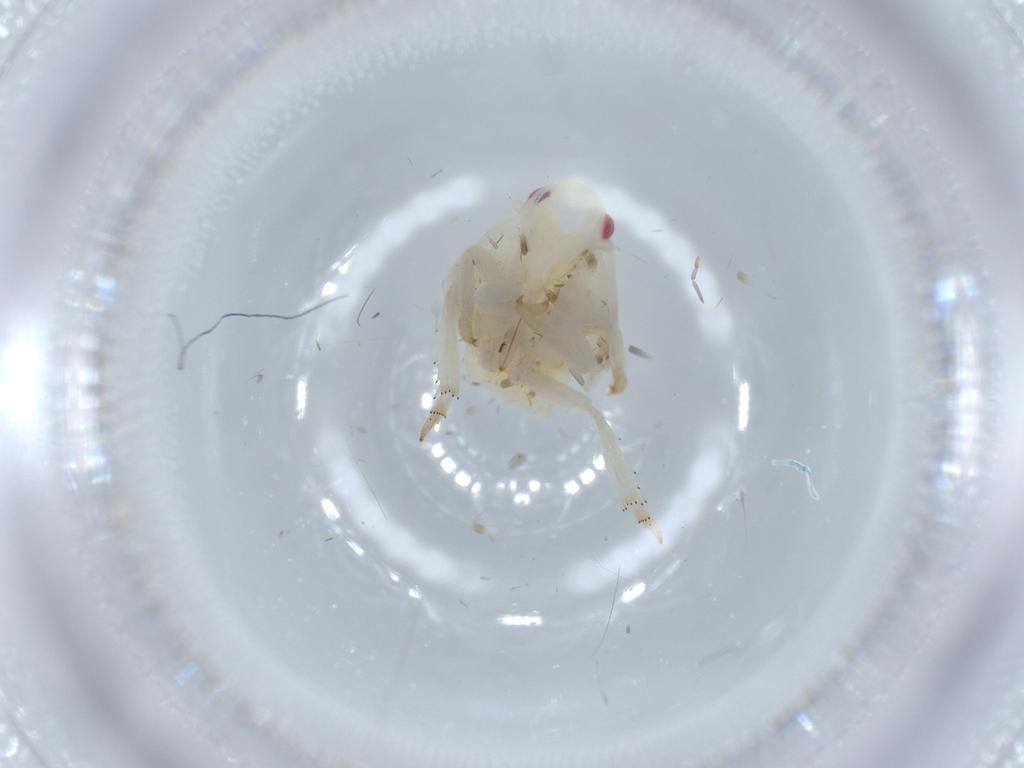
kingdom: Animalia
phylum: Arthropoda
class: Insecta
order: Hemiptera
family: Flatidae
